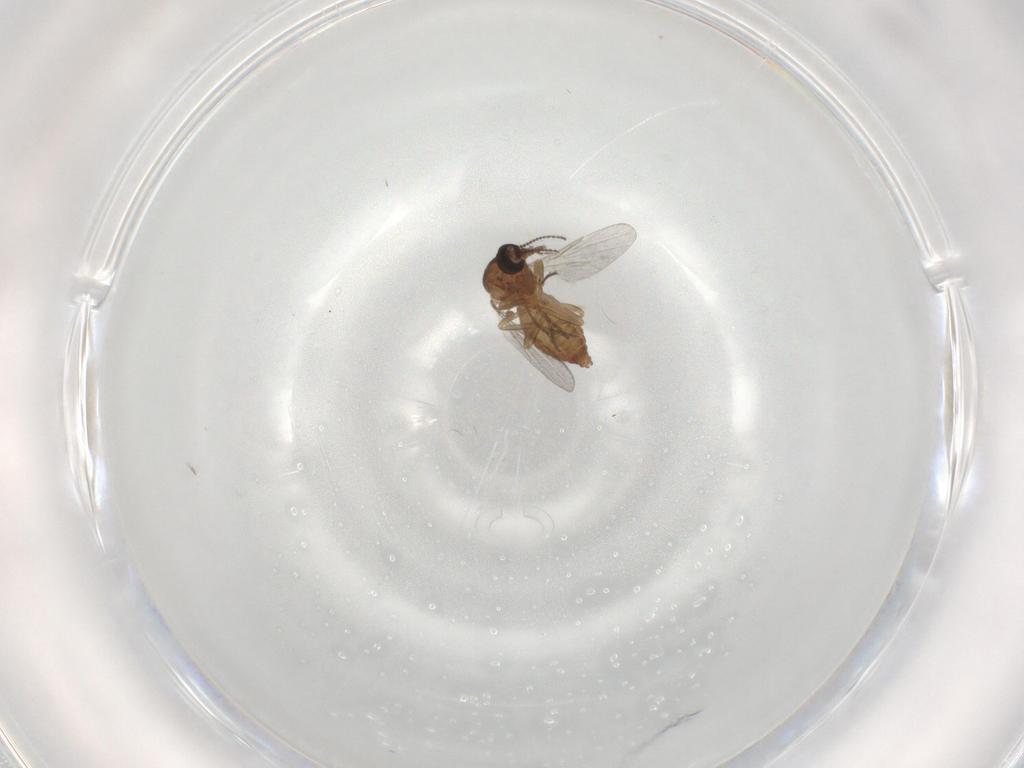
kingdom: Animalia
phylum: Arthropoda
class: Insecta
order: Diptera
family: Ceratopogonidae
